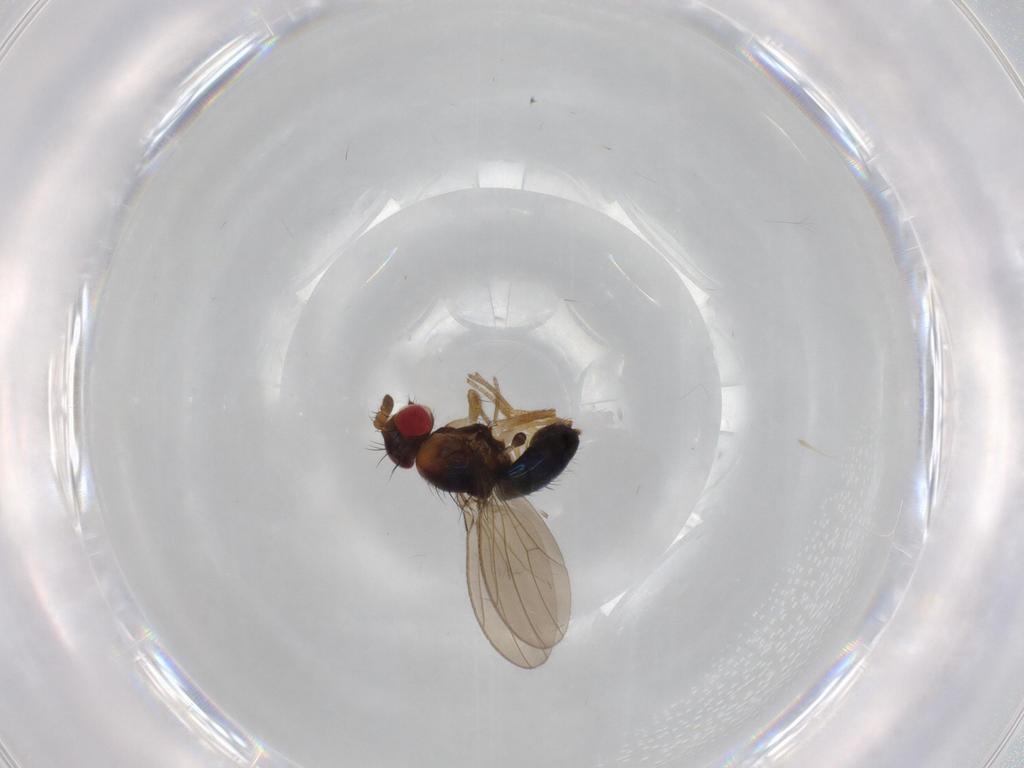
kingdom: Animalia
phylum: Arthropoda
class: Insecta
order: Diptera
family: Drosophilidae
